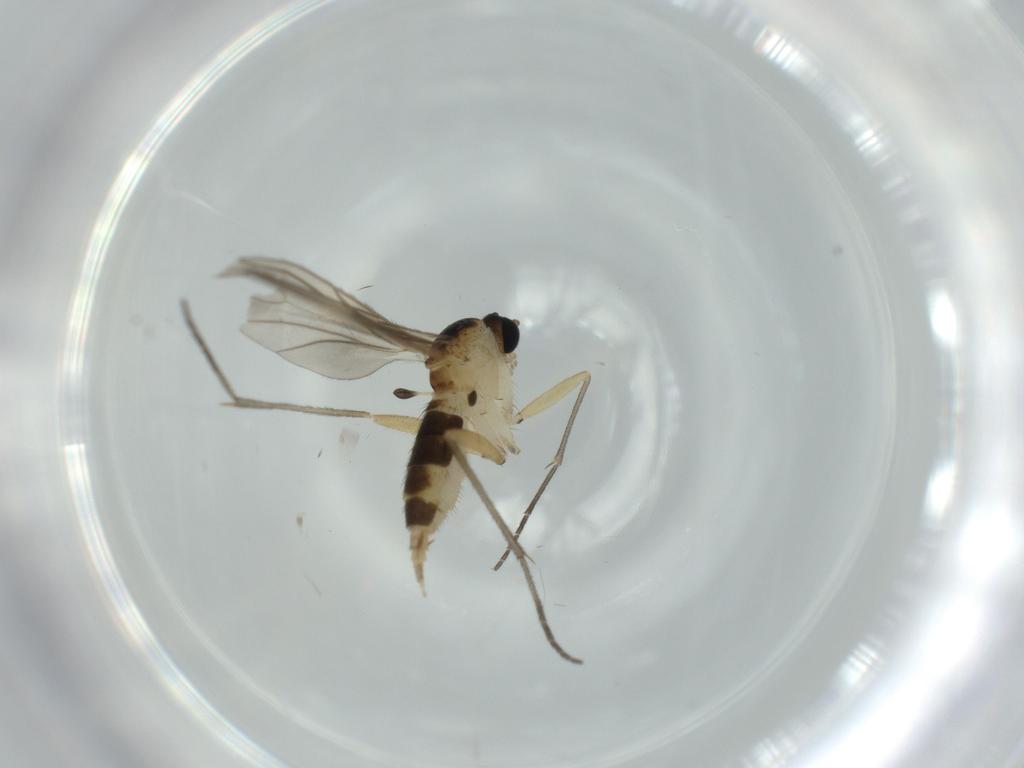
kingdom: Animalia
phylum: Arthropoda
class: Insecta
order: Diptera
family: Sciaridae
